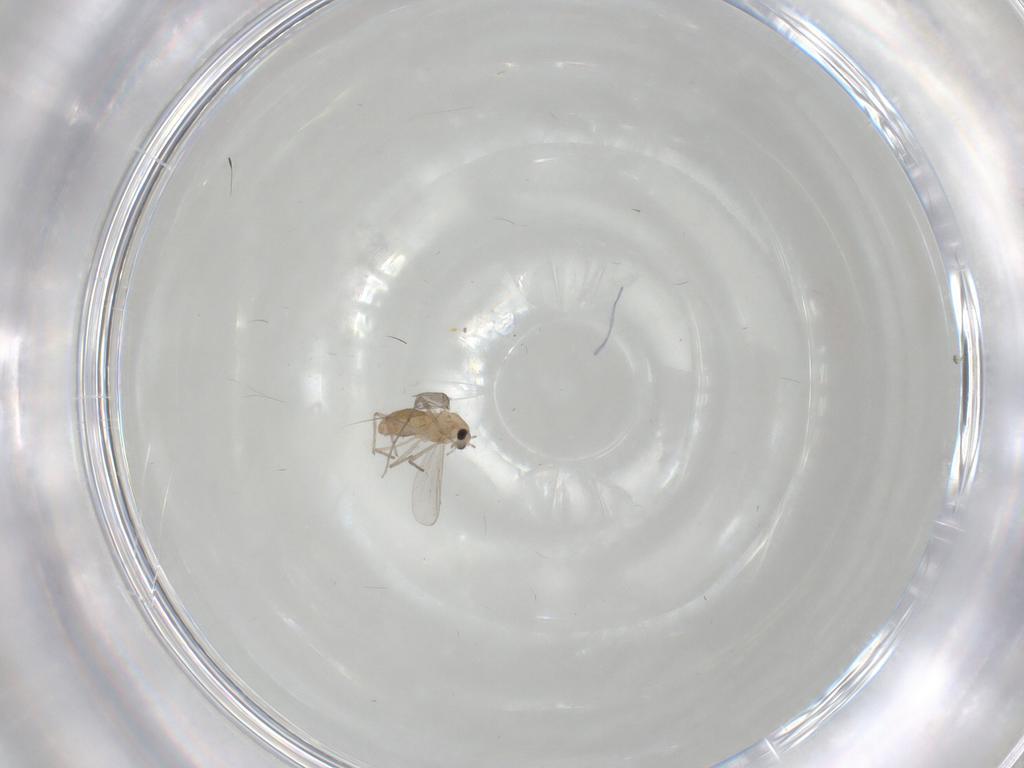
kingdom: Animalia
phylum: Arthropoda
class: Insecta
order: Diptera
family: Chironomidae
